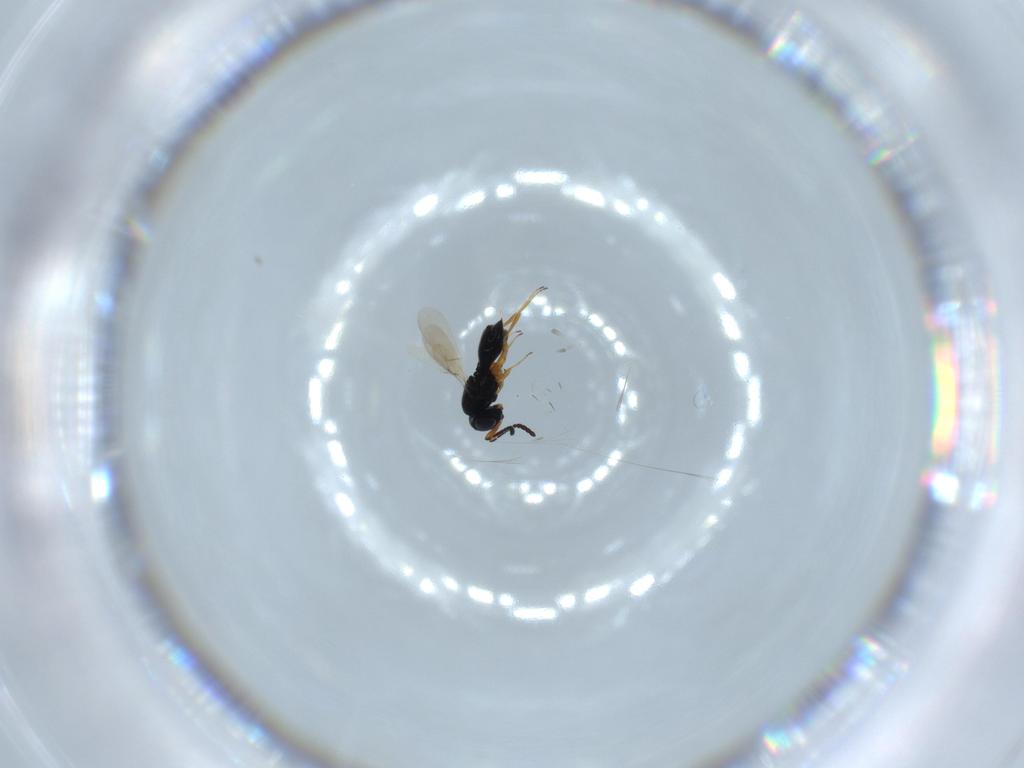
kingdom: Animalia
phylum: Arthropoda
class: Insecta
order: Hymenoptera
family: Scelionidae
